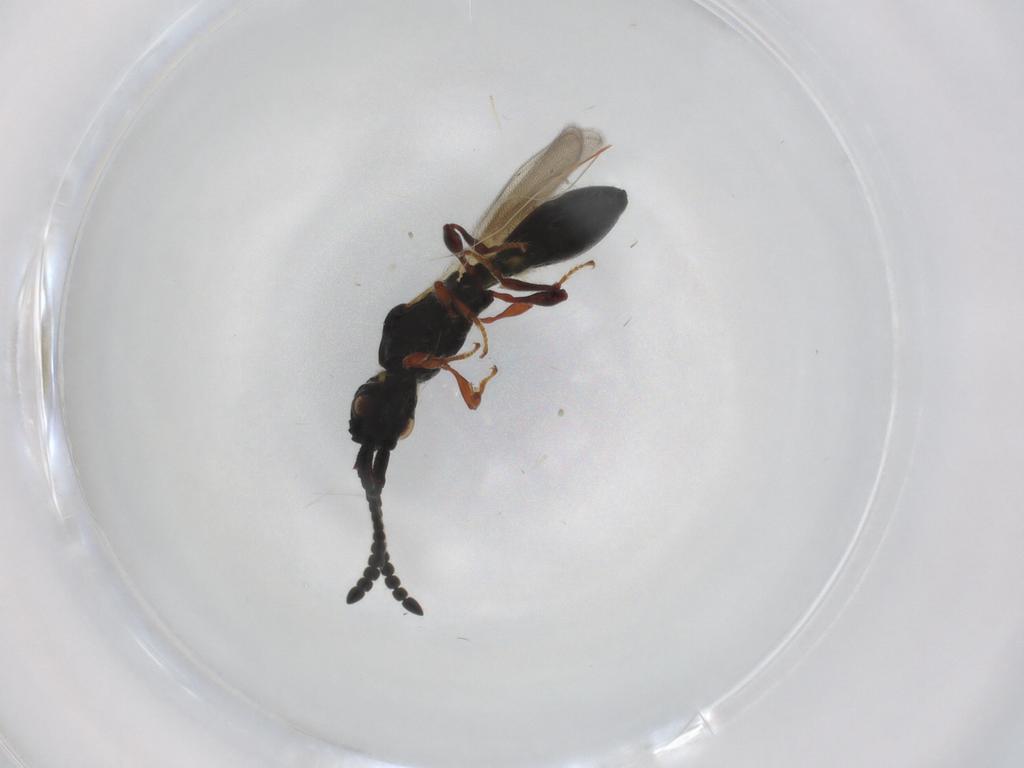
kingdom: Animalia
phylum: Arthropoda
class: Insecta
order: Hymenoptera
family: Diapriidae
